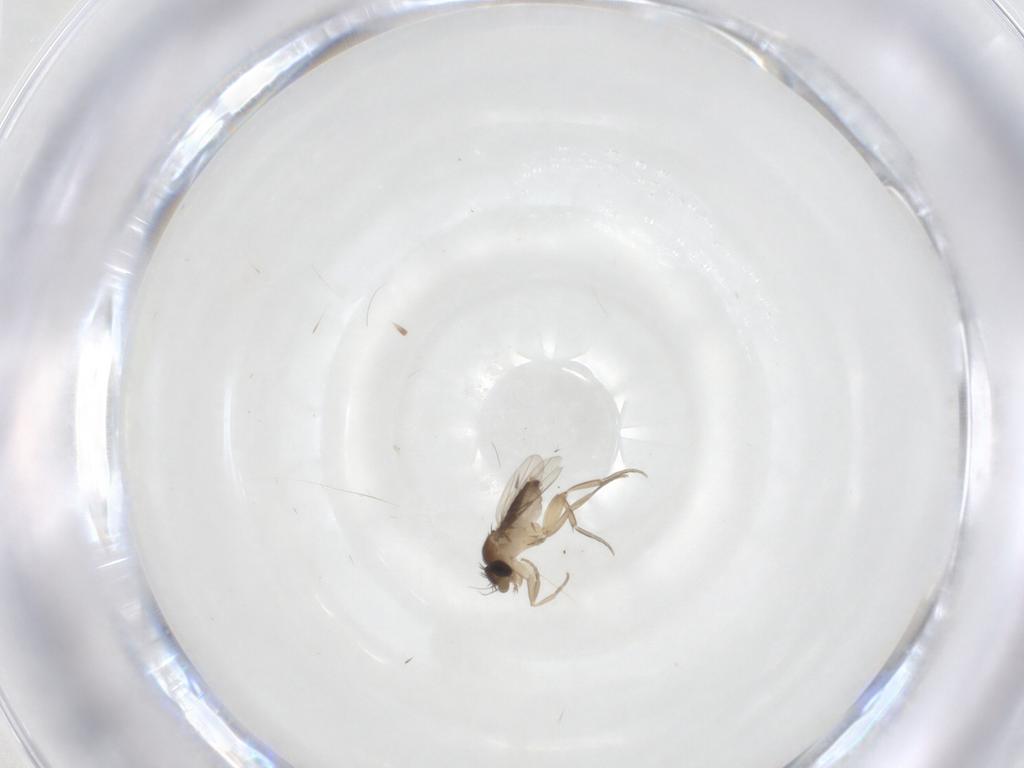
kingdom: Animalia
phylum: Arthropoda
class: Insecta
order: Diptera
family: Phoridae
